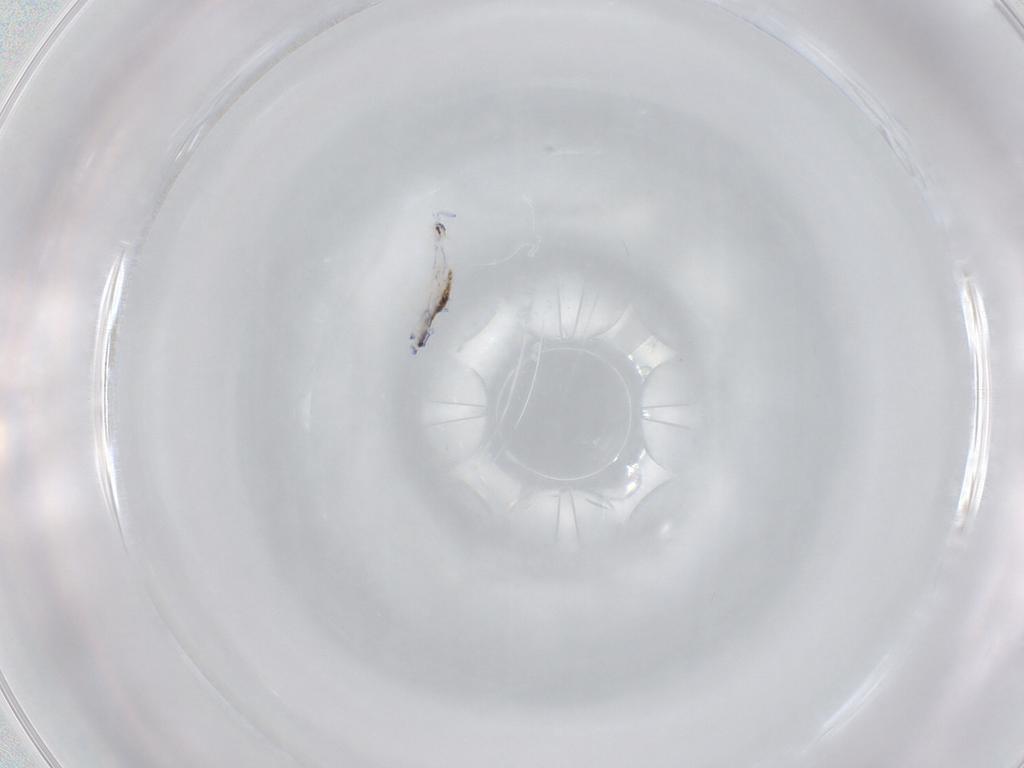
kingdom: Animalia
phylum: Arthropoda
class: Collembola
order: Entomobryomorpha
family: Entomobryidae
